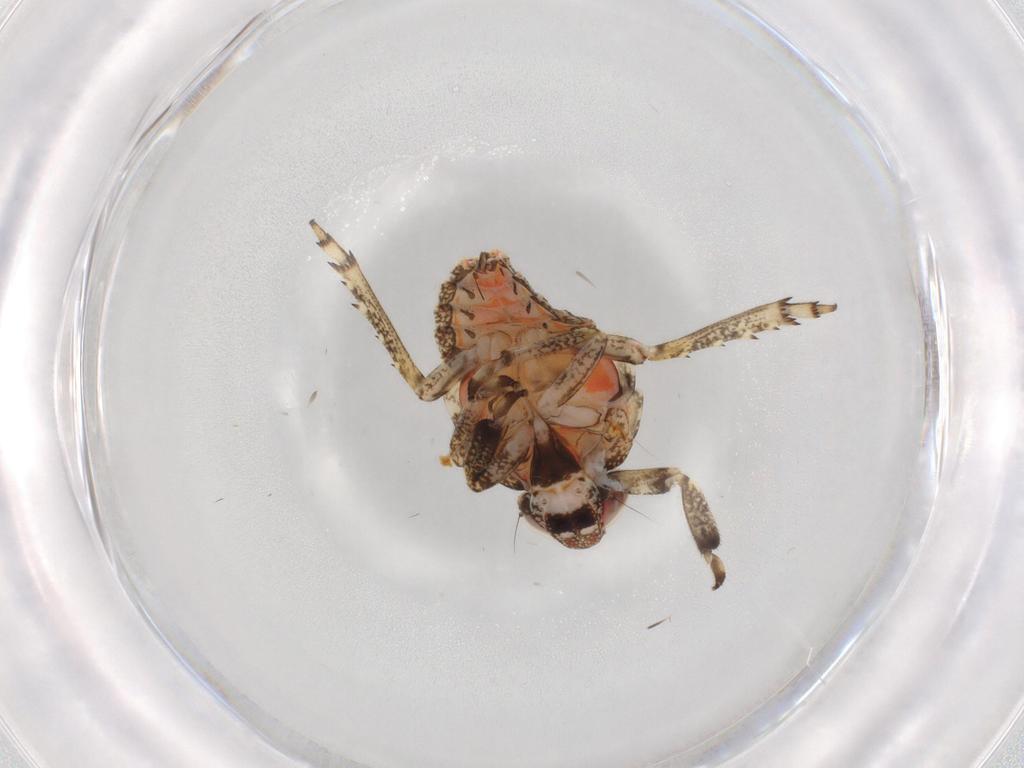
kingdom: Animalia
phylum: Arthropoda
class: Insecta
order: Hemiptera
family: Issidae
